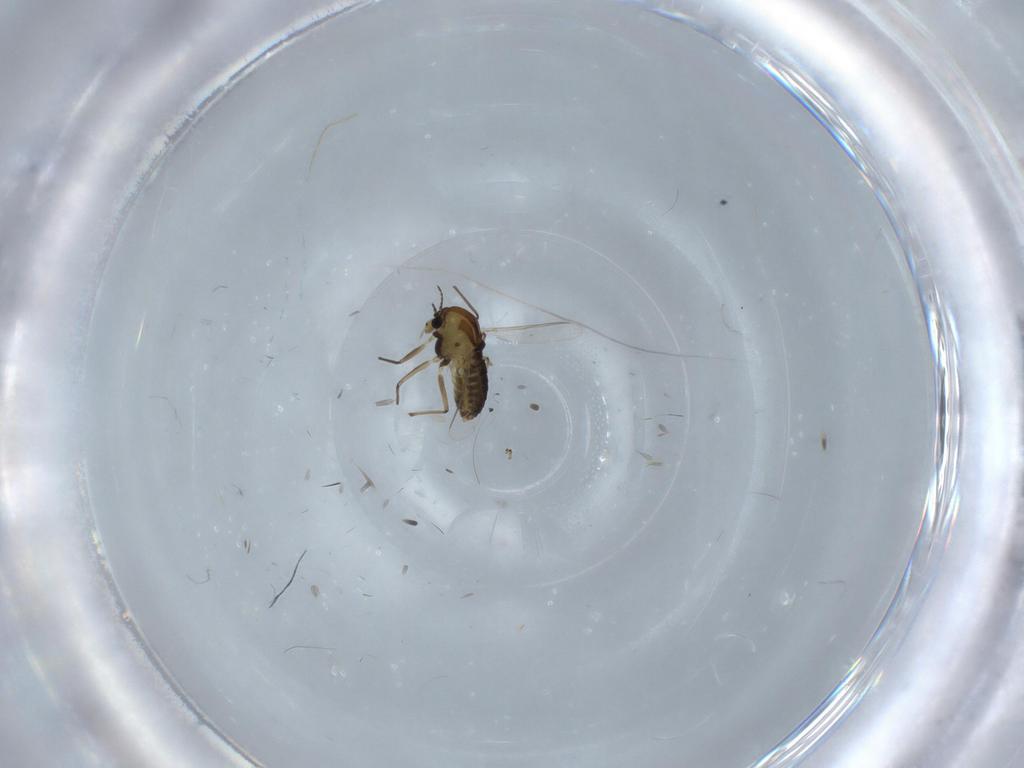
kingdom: Animalia
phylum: Arthropoda
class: Insecta
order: Diptera
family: Chironomidae
